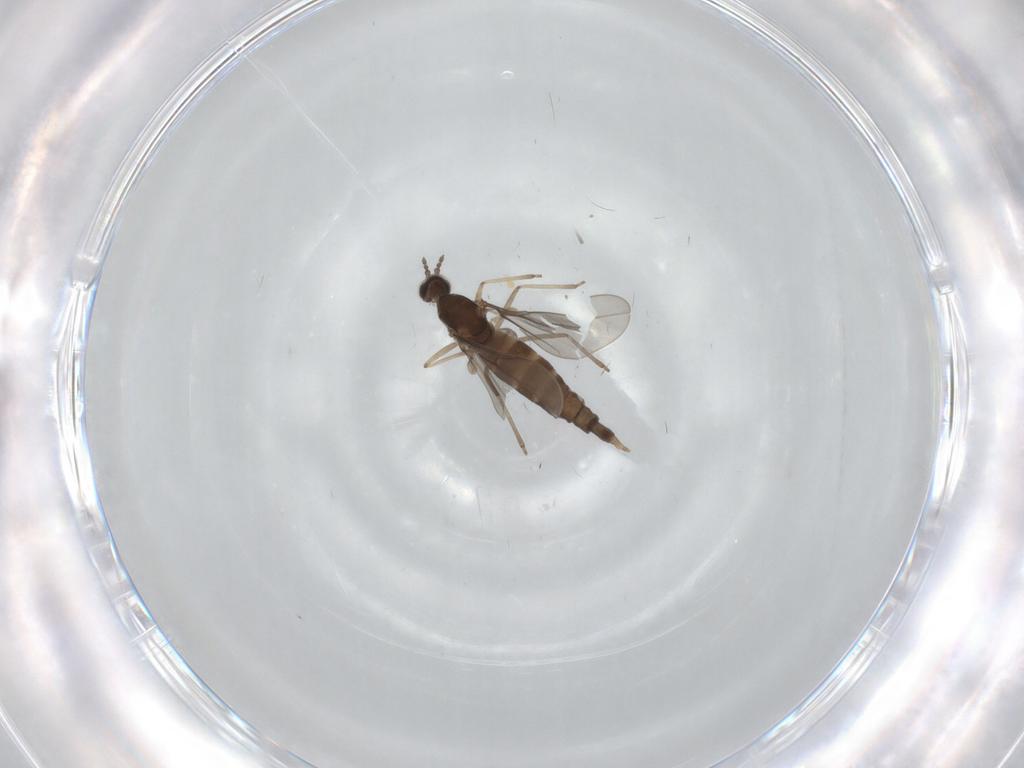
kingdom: Animalia
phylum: Arthropoda
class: Insecta
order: Diptera
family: Cecidomyiidae
